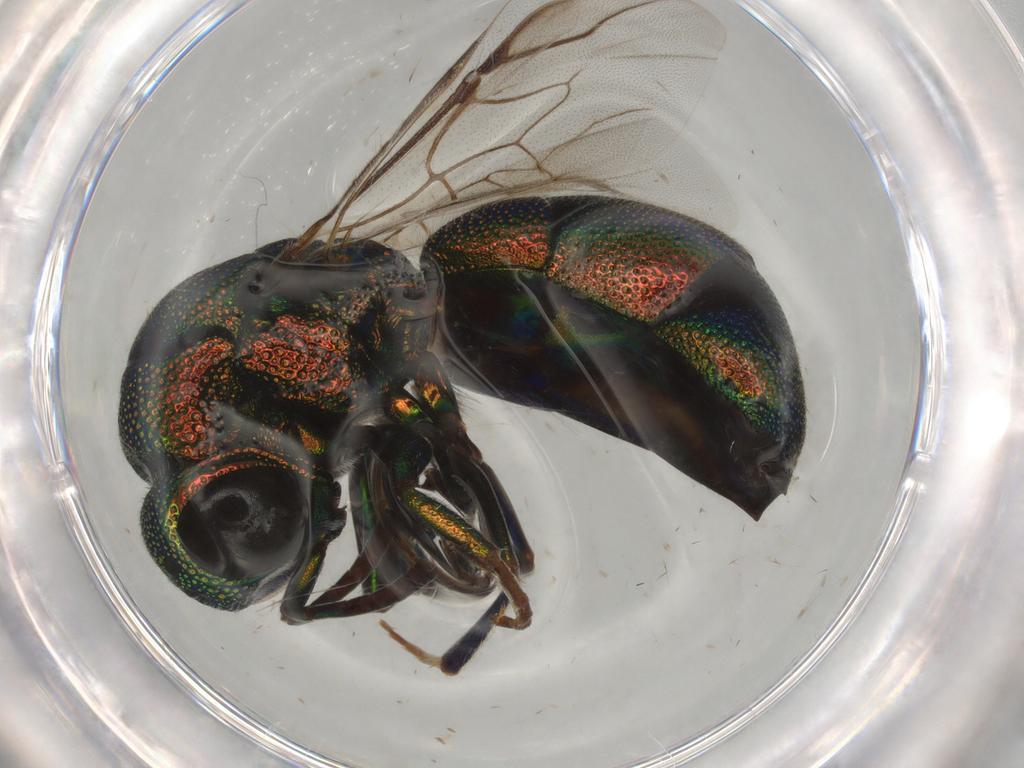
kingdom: Animalia
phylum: Arthropoda
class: Insecta
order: Hymenoptera
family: Chrysididae
